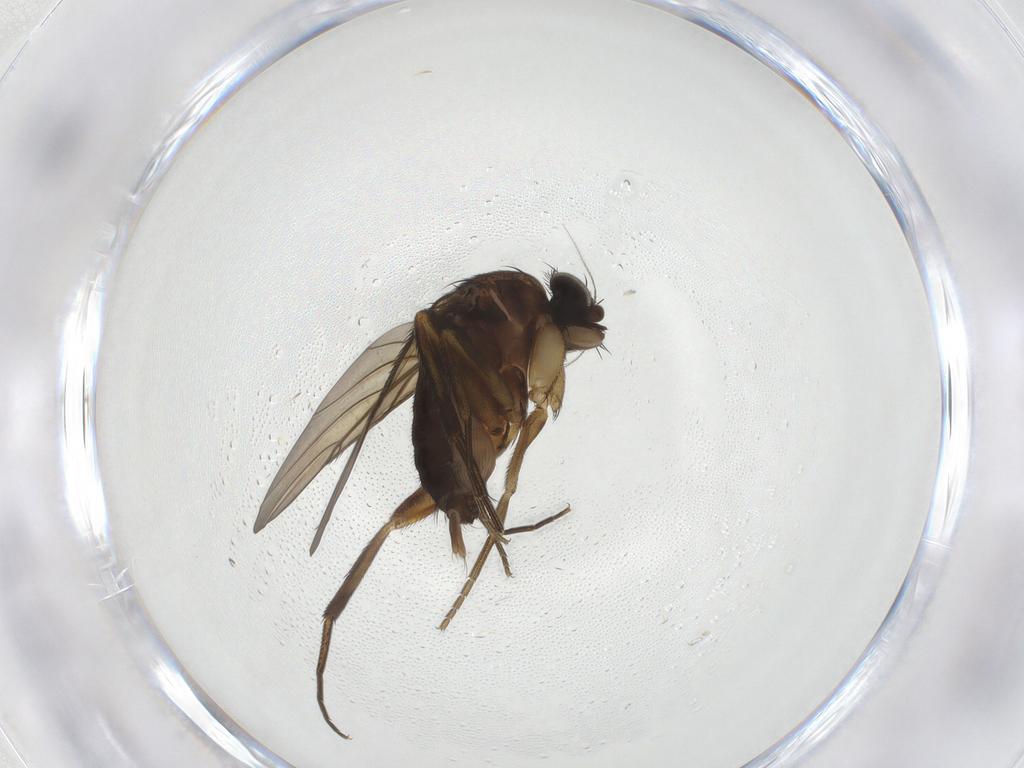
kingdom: Animalia
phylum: Arthropoda
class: Insecta
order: Diptera
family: Phoridae
